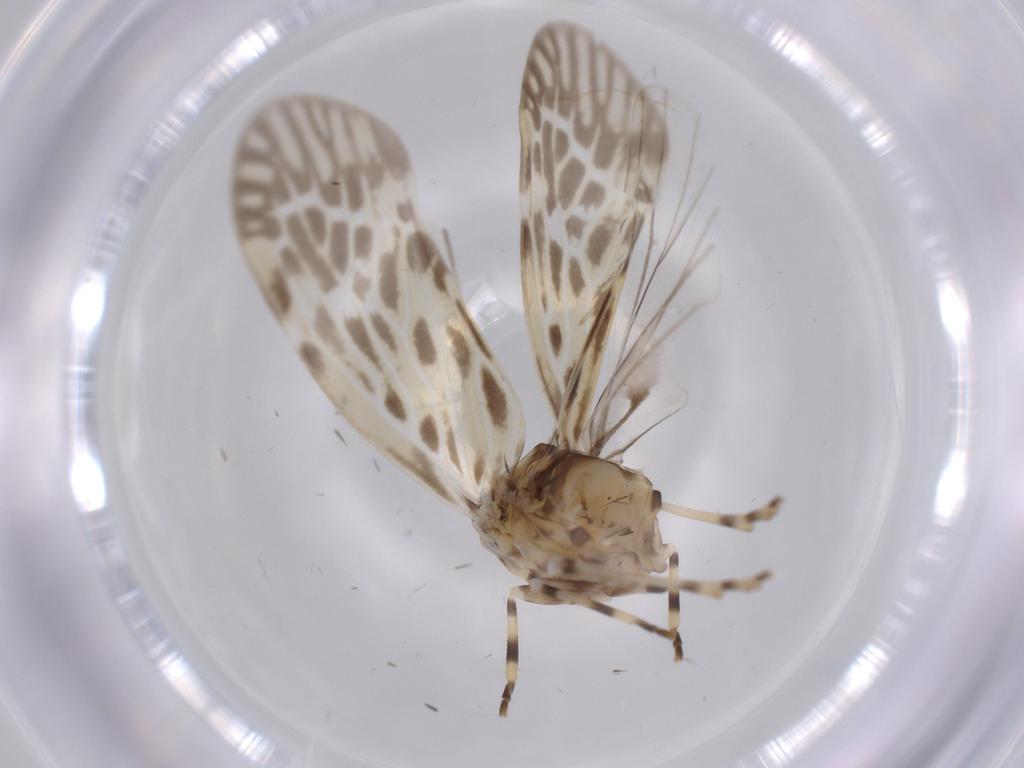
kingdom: Animalia
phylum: Arthropoda
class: Insecta
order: Hemiptera
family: Derbidae
